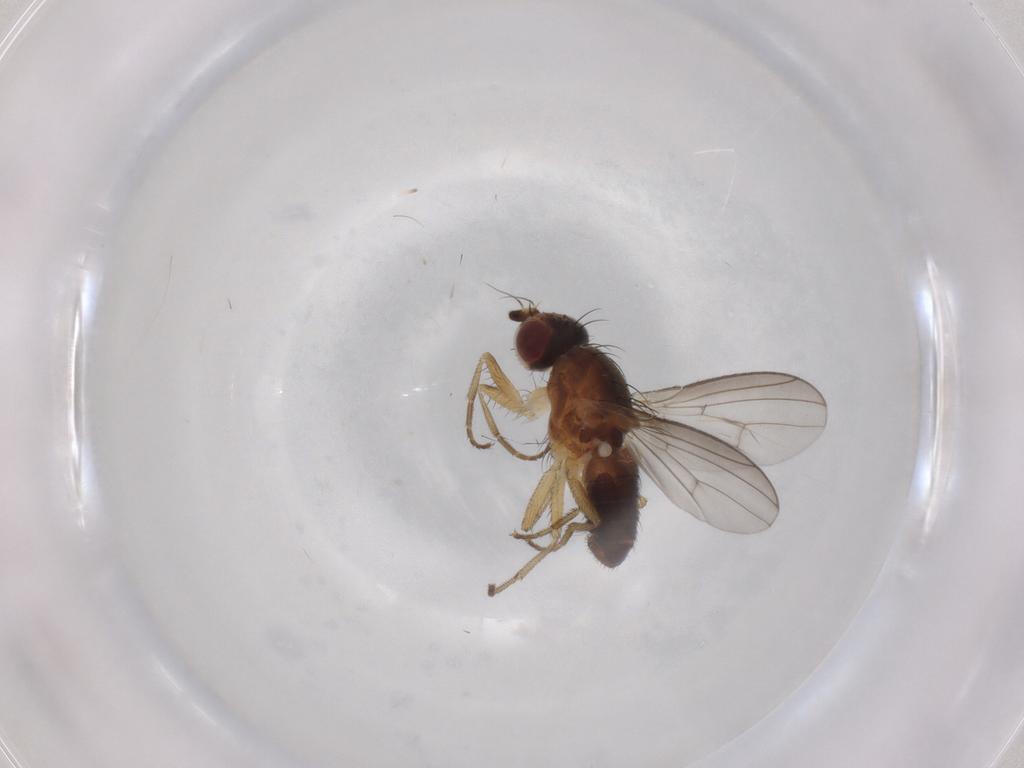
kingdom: Animalia
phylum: Arthropoda
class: Insecta
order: Diptera
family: Heleomyzidae
